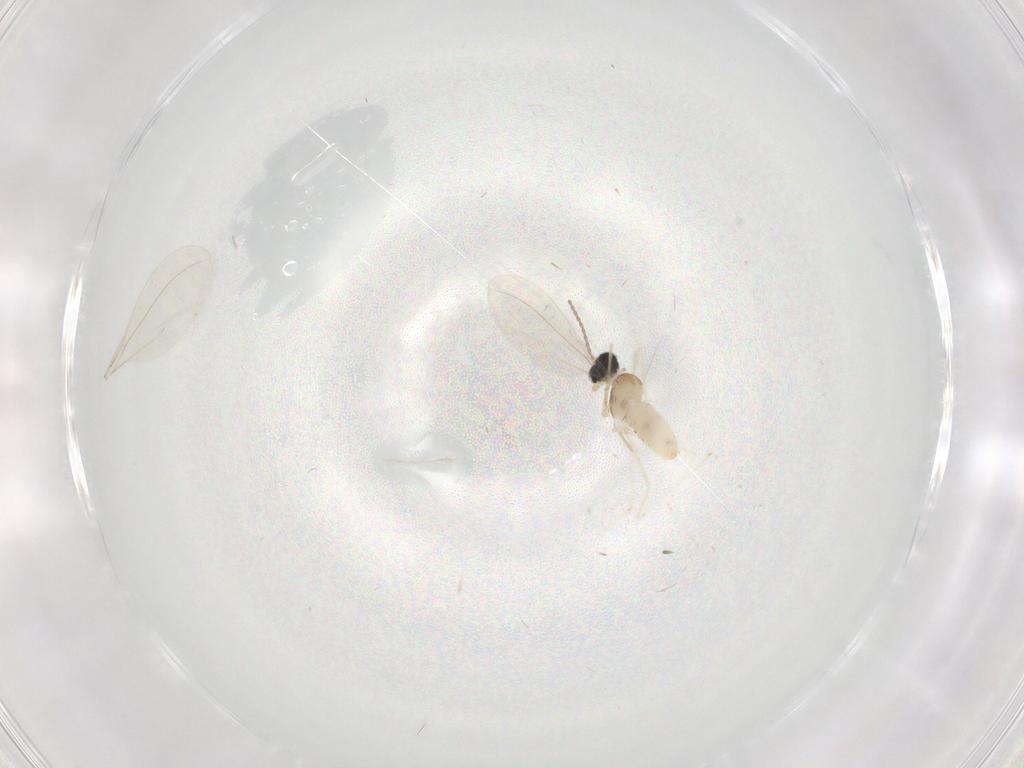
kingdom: Animalia
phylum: Arthropoda
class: Insecta
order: Diptera
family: Cecidomyiidae
